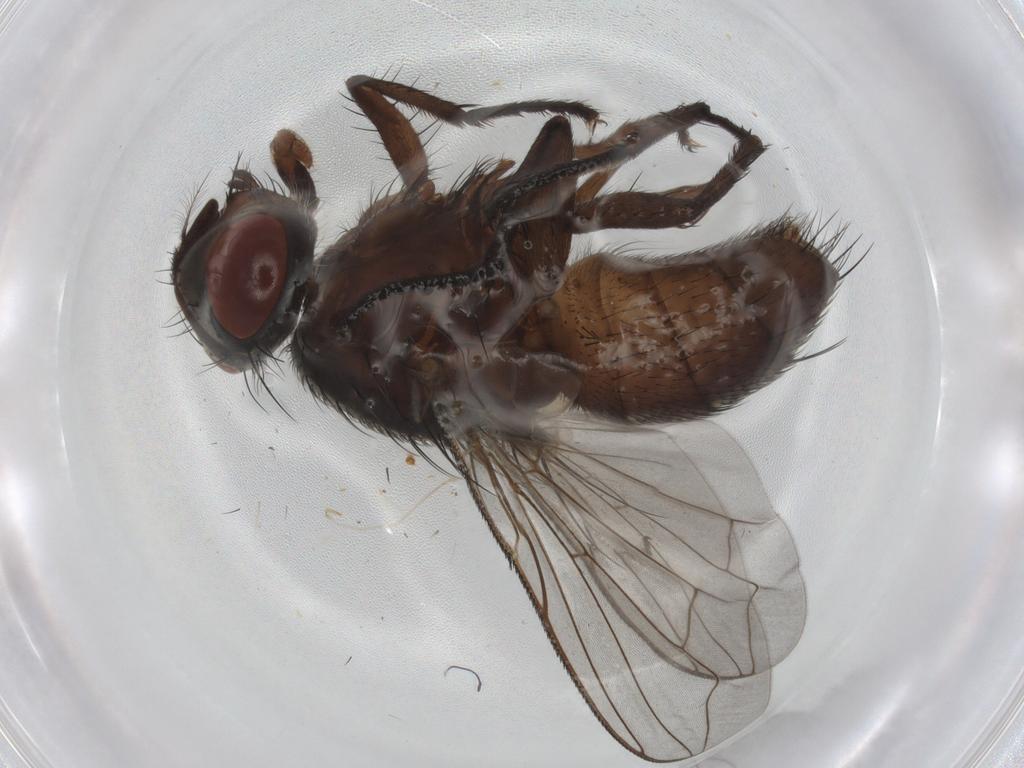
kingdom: Animalia
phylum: Arthropoda
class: Insecta
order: Diptera
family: Sarcophagidae
